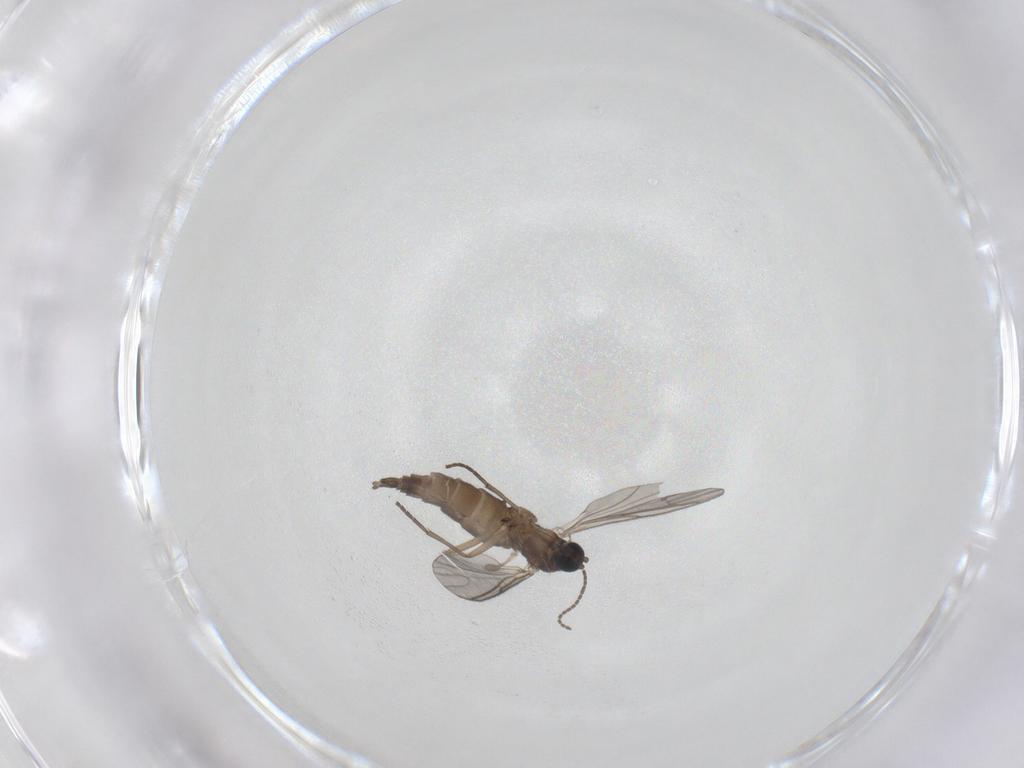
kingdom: Animalia
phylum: Arthropoda
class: Insecta
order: Diptera
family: Sciaridae
